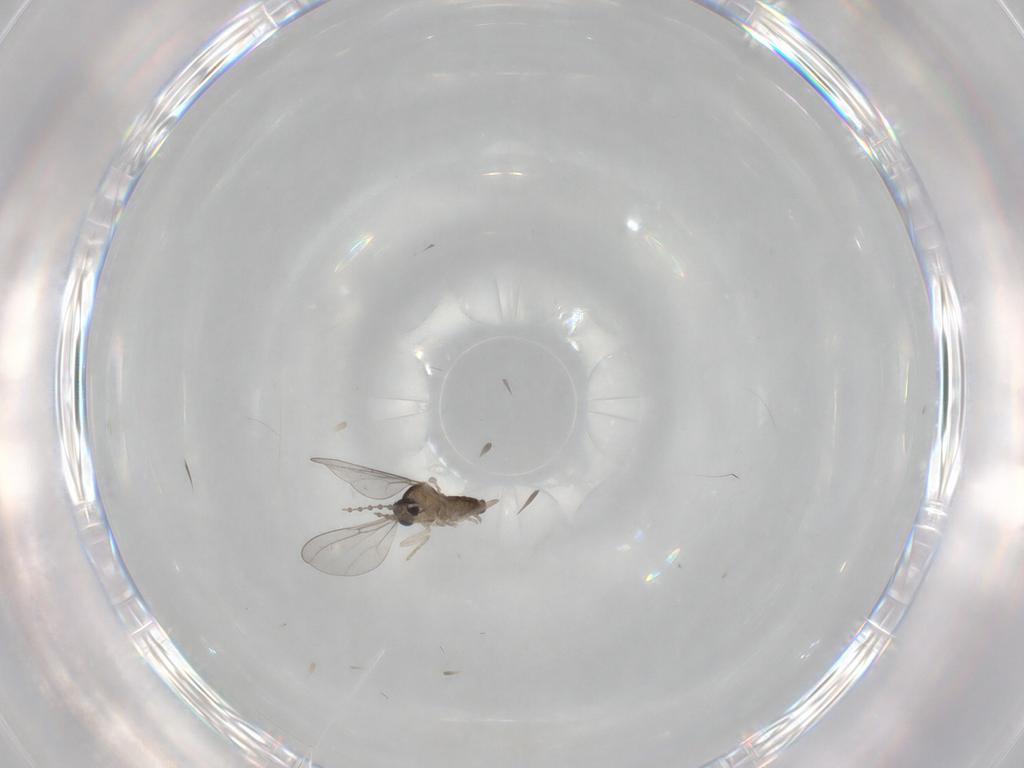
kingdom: Animalia
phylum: Arthropoda
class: Insecta
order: Diptera
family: Cecidomyiidae
